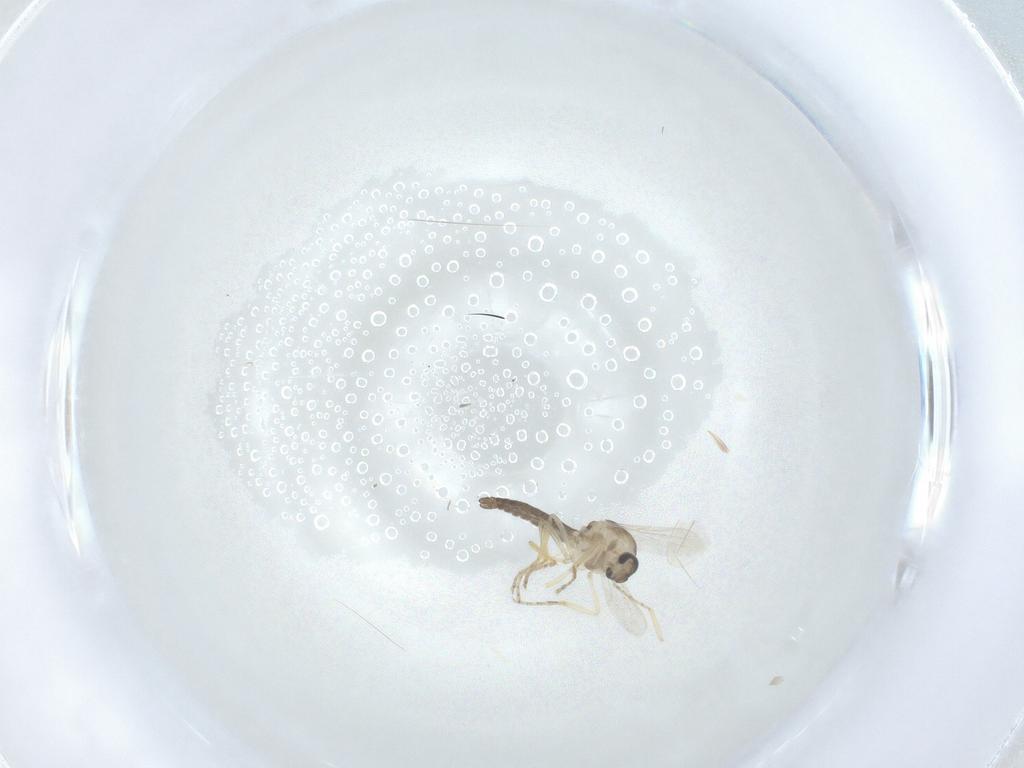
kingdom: Animalia
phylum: Arthropoda
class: Insecta
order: Diptera
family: Ceratopogonidae
